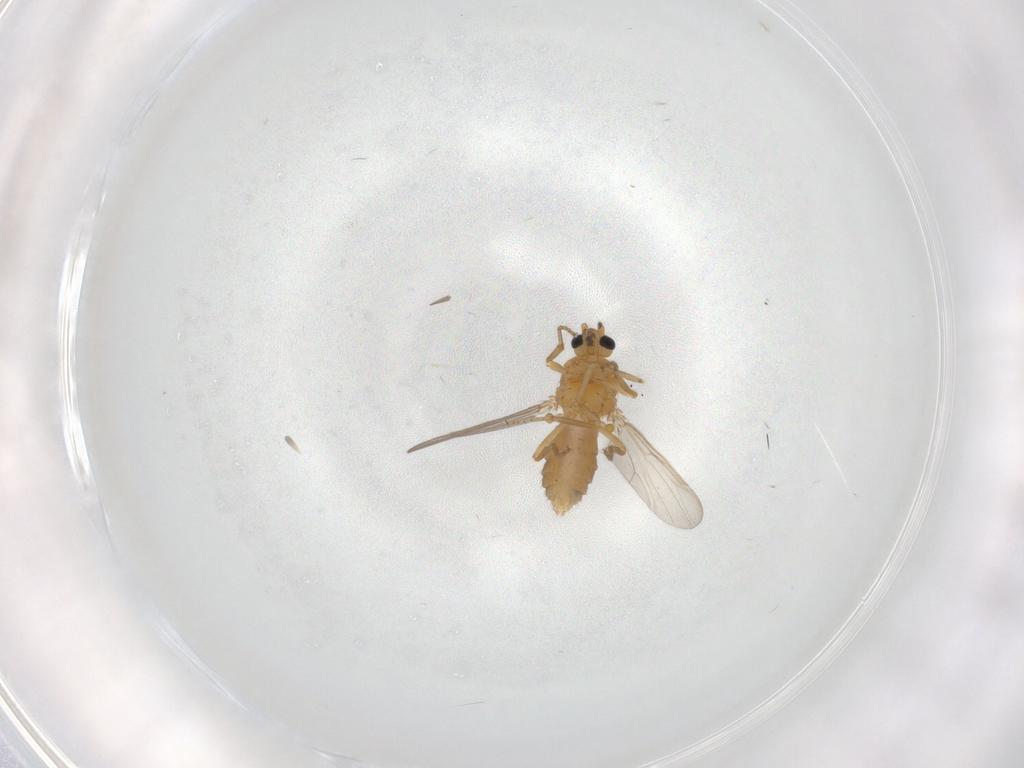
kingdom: Animalia
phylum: Arthropoda
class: Insecta
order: Diptera
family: Ceratopogonidae
